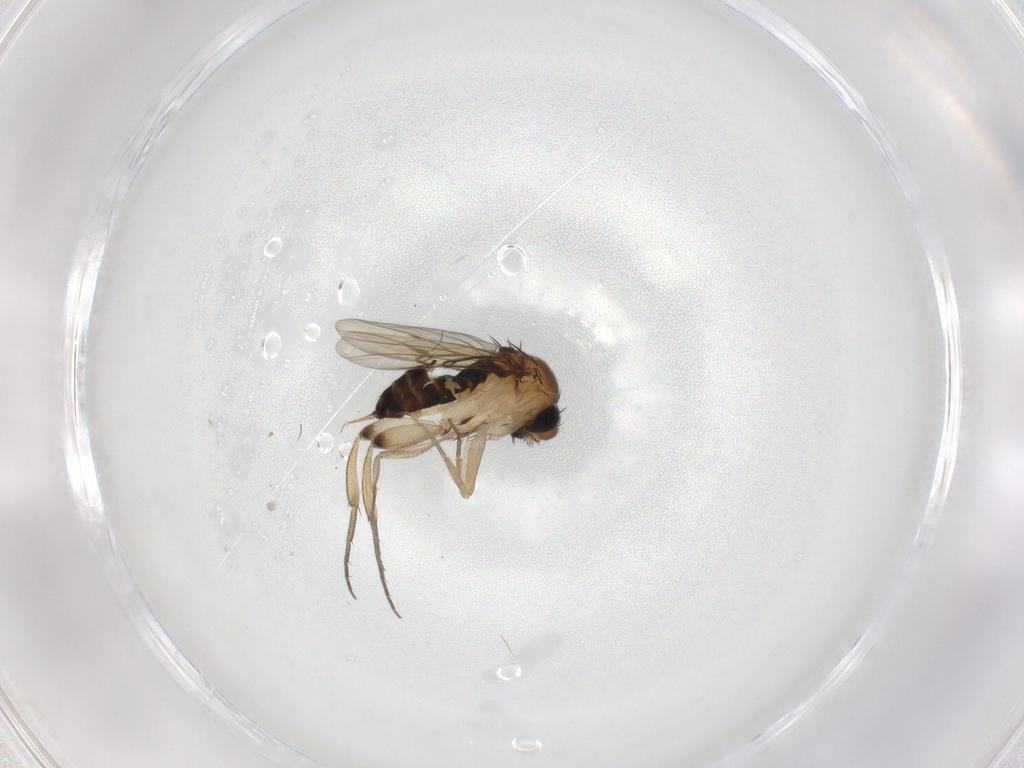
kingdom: Animalia
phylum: Arthropoda
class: Insecta
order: Diptera
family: Phoridae
